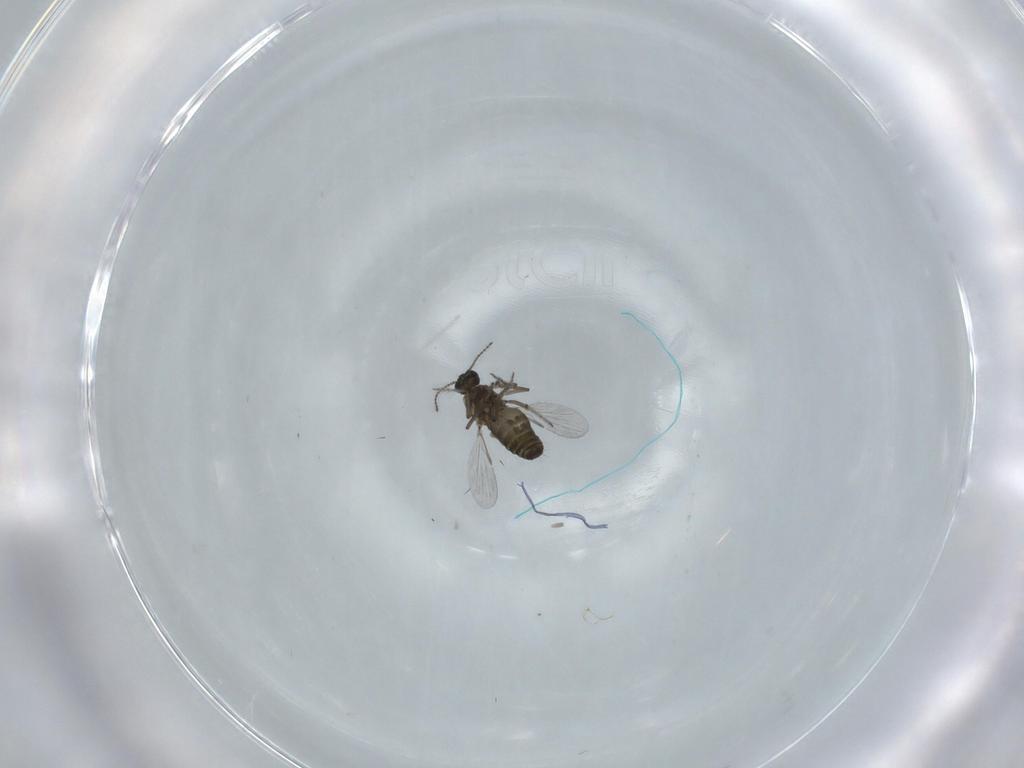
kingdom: Animalia
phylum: Arthropoda
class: Insecta
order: Diptera
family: Ceratopogonidae
